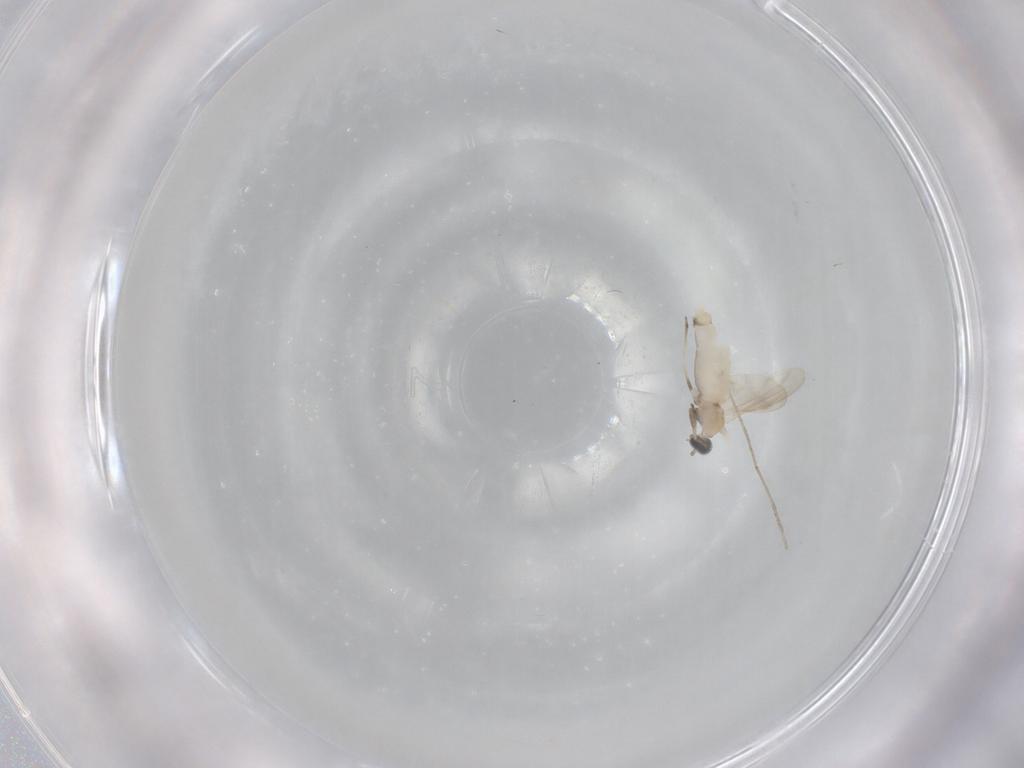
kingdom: Animalia
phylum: Arthropoda
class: Insecta
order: Diptera
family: Cecidomyiidae
